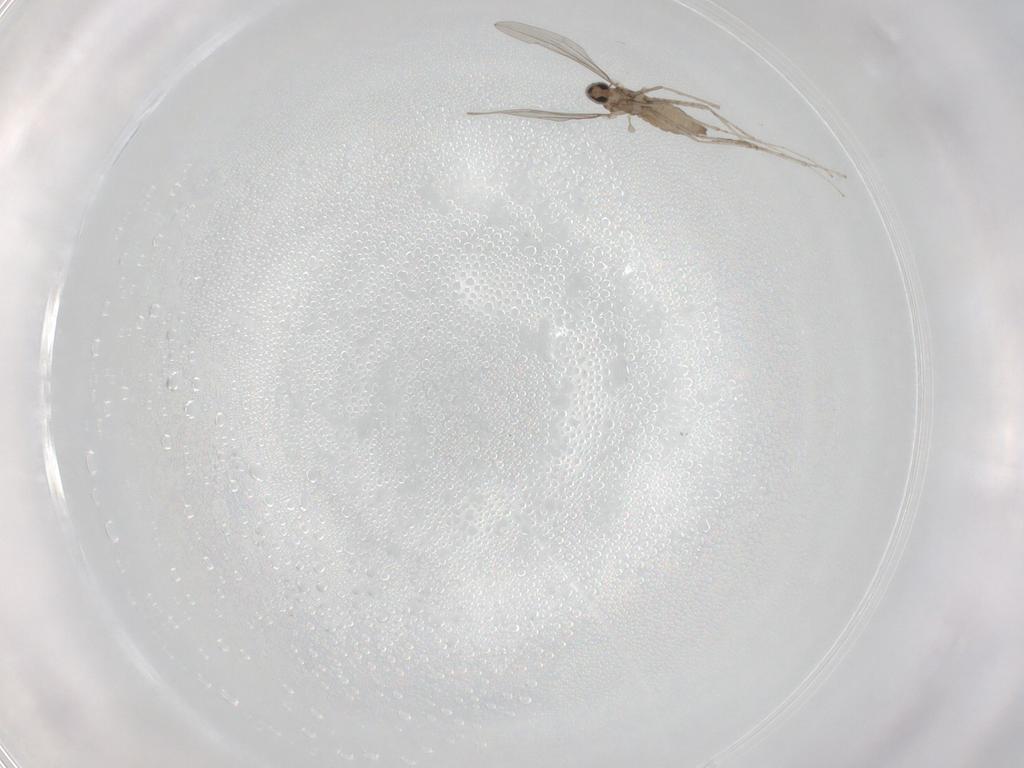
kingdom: Animalia
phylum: Arthropoda
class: Insecta
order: Diptera
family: Cecidomyiidae
